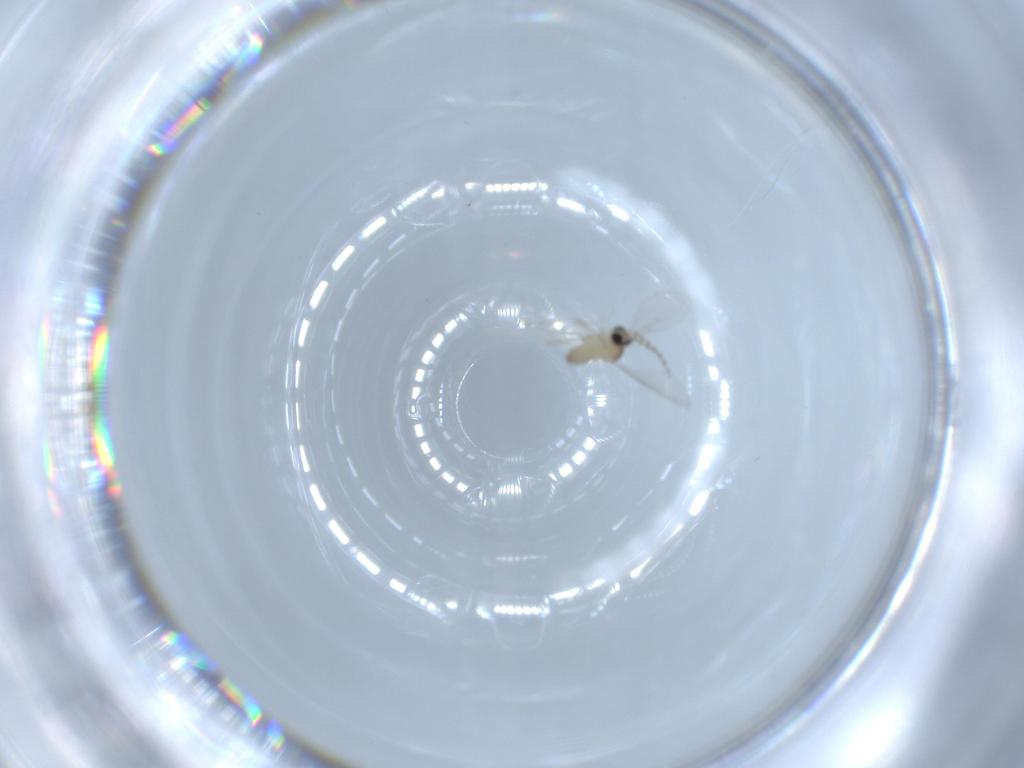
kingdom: Animalia
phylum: Arthropoda
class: Insecta
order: Diptera
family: Cecidomyiidae
